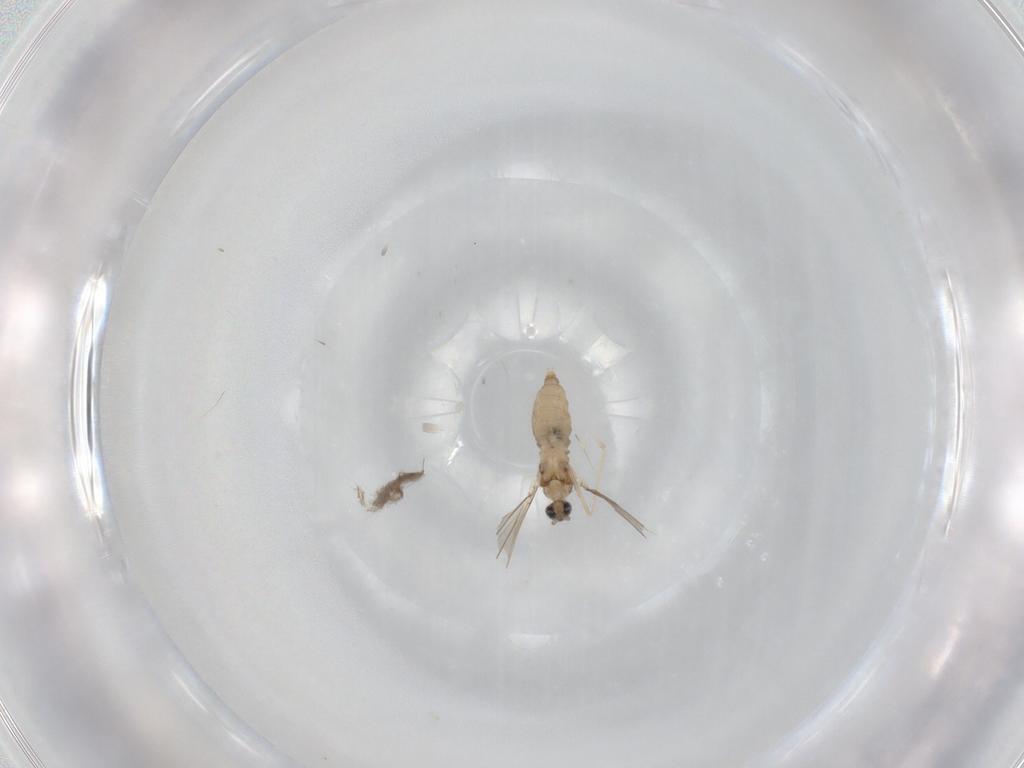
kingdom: Animalia
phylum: Arthropoda
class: Insecta
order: Diptera
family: Cecidomyiidae
